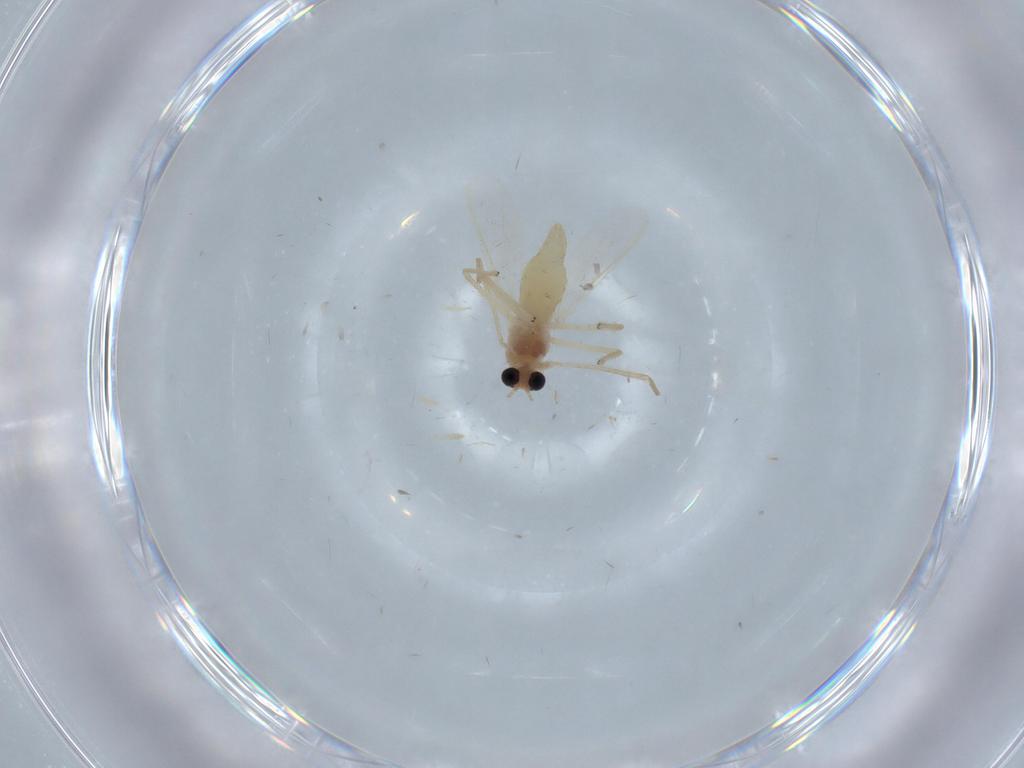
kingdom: Animalia
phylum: Arthropoda
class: Insecta
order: Diptera
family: Chironomidae
